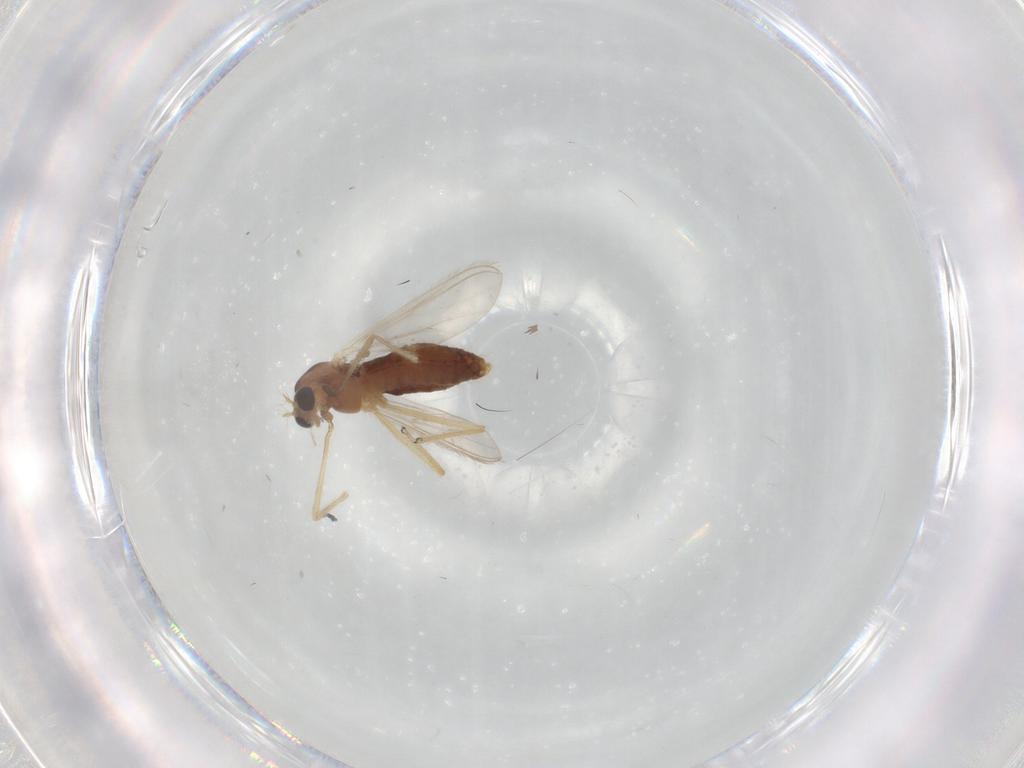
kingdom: Animalia
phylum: Arthropoda
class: Insecta
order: Diptera
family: Chironomidae
